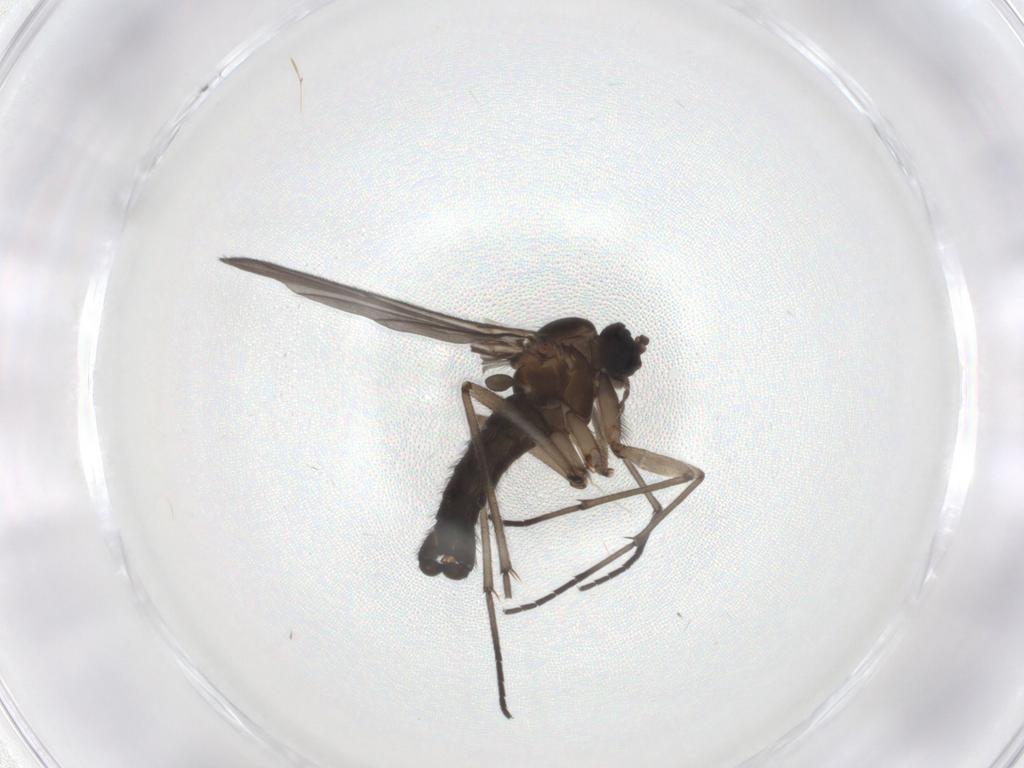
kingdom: Animalia
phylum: Arthropoda
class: Insecta
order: Diptera
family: Sciaridae
